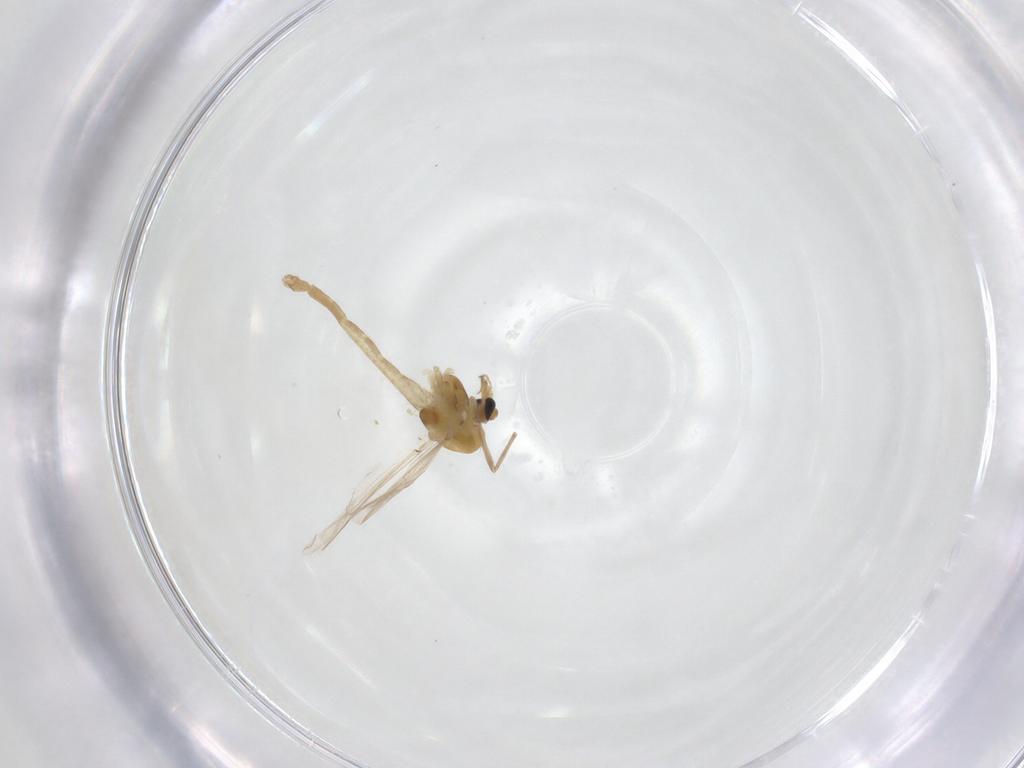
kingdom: Animalia
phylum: Arthropoda
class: Insecta
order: Diptera
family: Chironomidae
